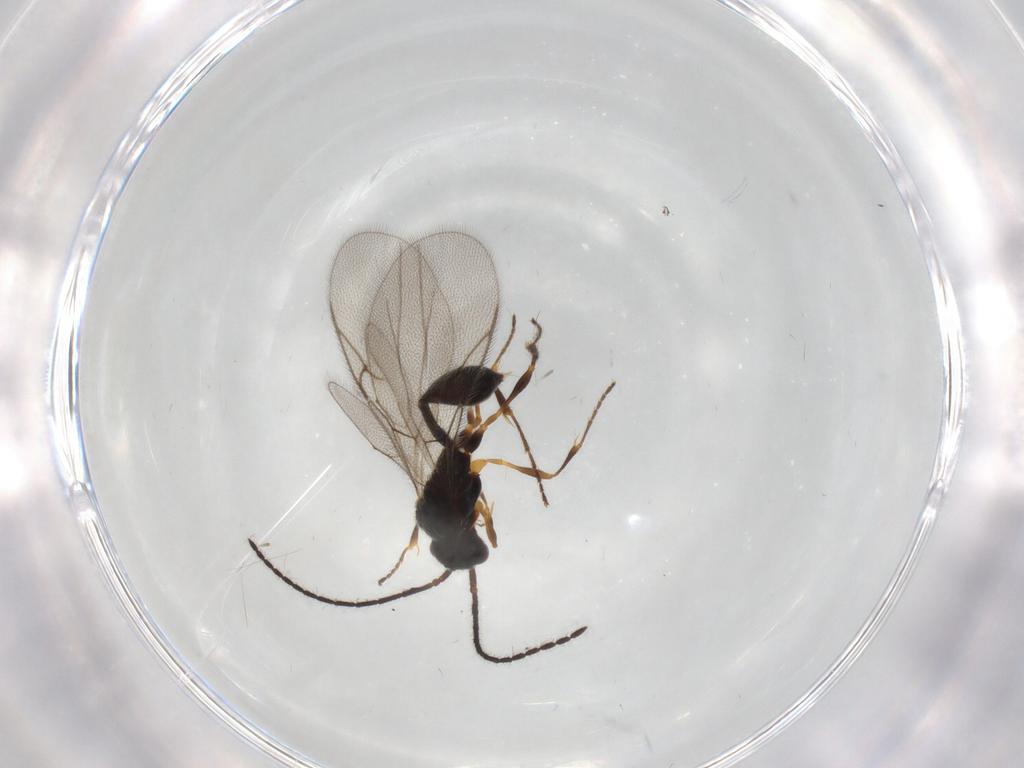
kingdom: Animalia
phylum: Arthropoda
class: Insecta
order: Hymenoptera
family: Diapriidae
